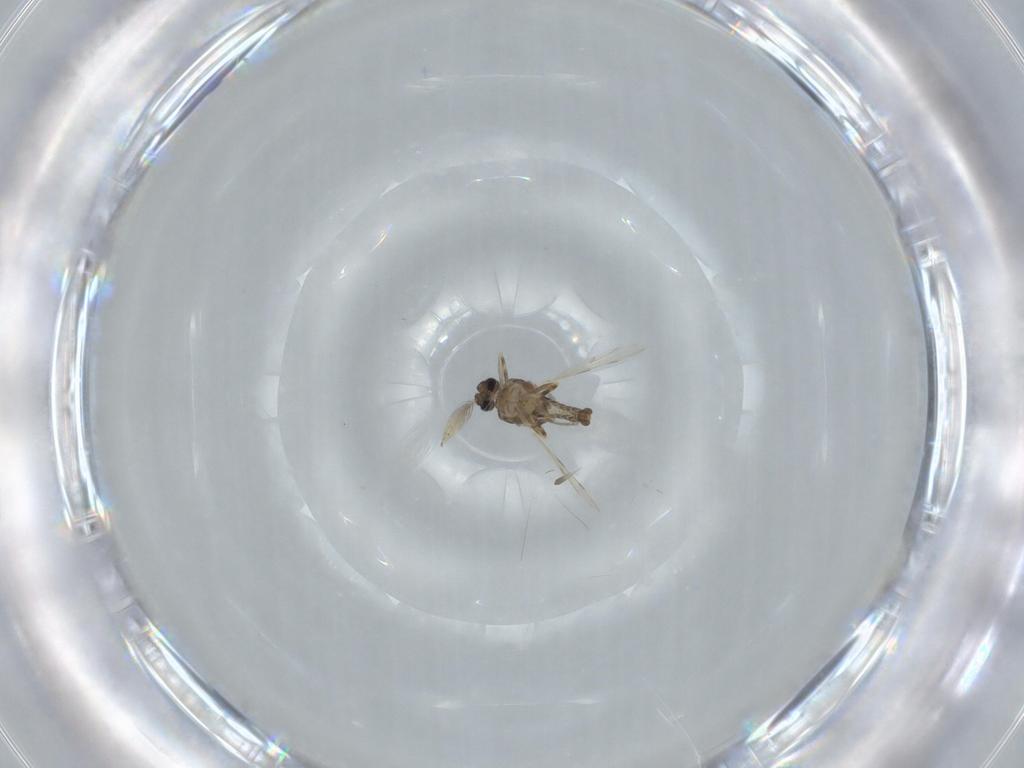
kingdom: Animalia
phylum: Arthropoda
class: Insecta
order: Diptera
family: Ceratopogonidae
